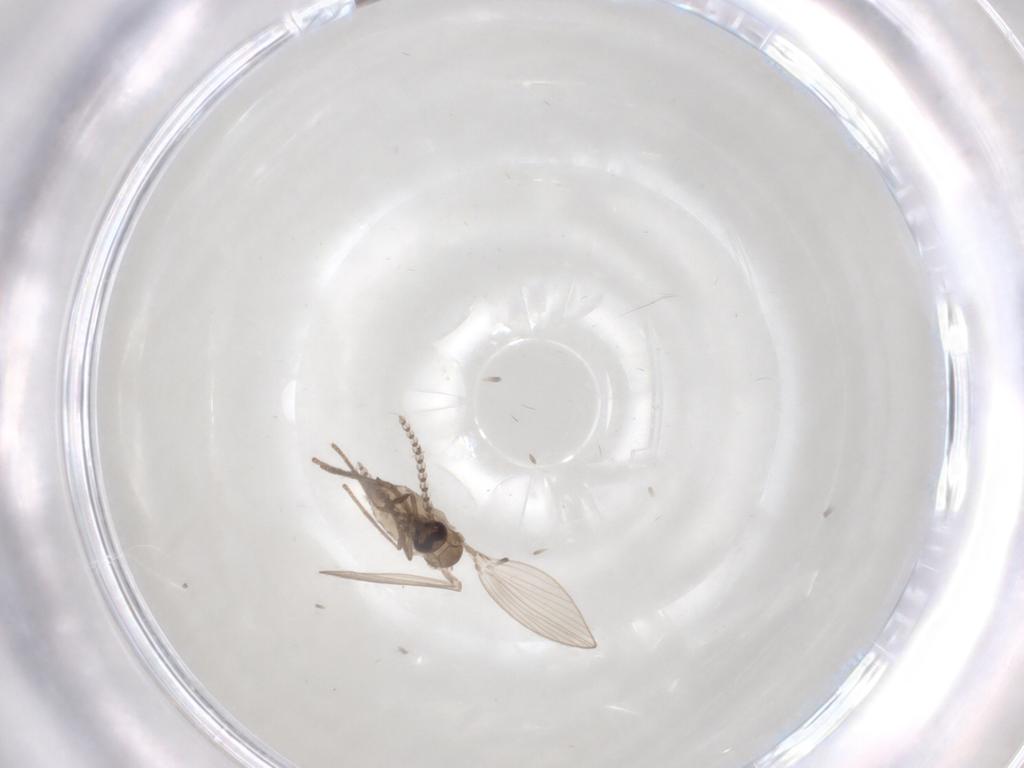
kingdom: Animalia
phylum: Arthropoda
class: Insecta
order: Diptera
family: Psychodidae
